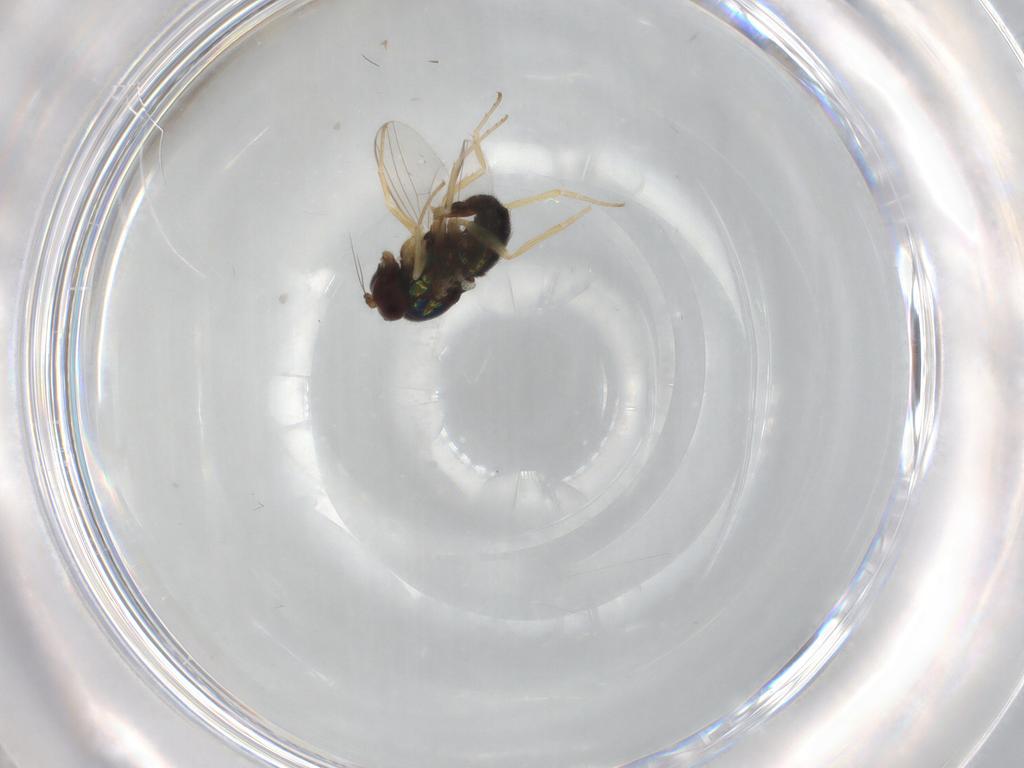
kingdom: Animalia
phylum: Arthropoda
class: Insecta
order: Diptera
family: Dolichopodidae
